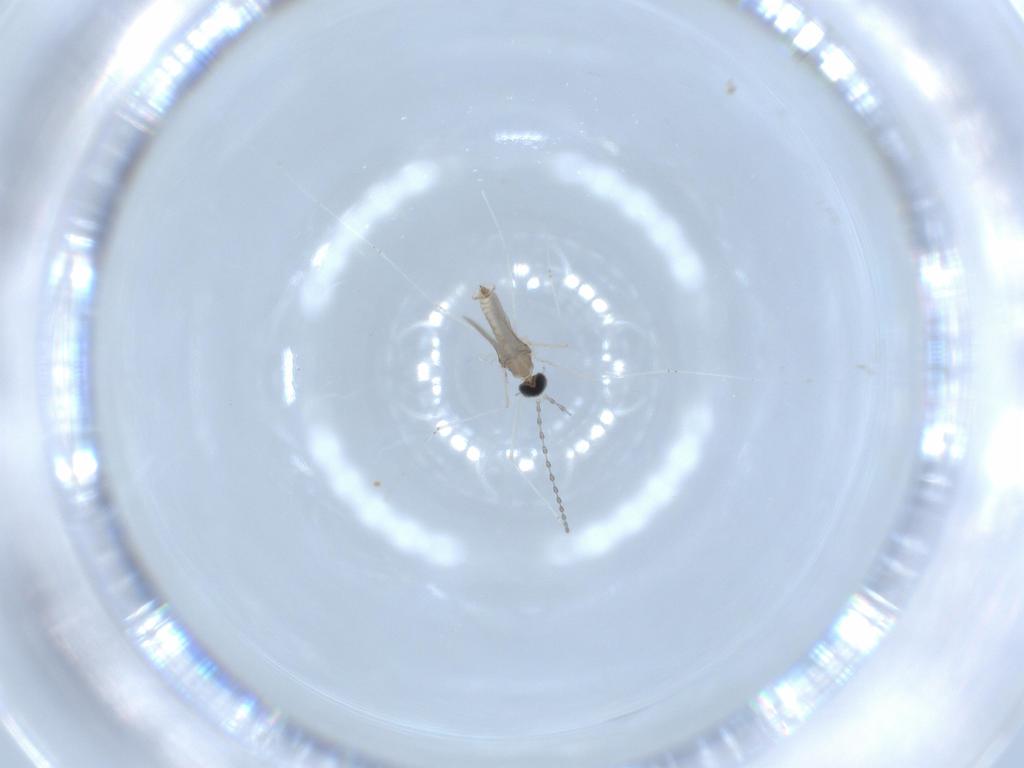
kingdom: Animalia
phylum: Arthropoda
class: Insecta
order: Diptera
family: Cecidomyiidae
